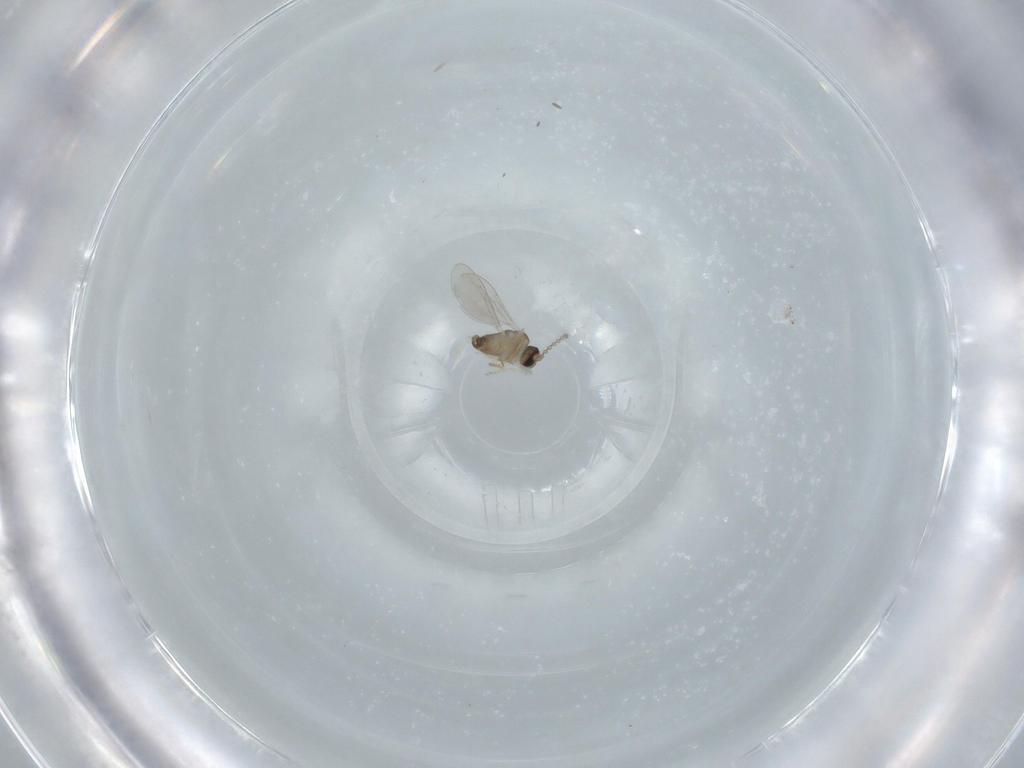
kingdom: Animalia
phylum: Arthropoda
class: Insecta
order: Diptera
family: Cecidomyiidae
